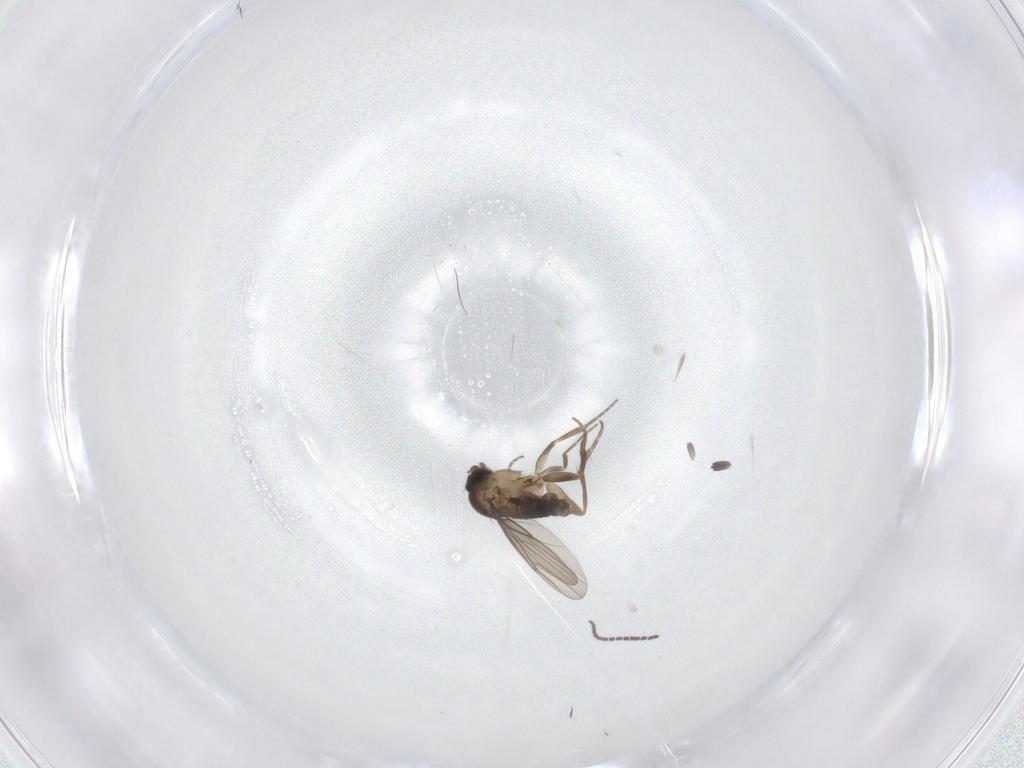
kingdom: Animalia
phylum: Arthropoda
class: Insecta
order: Diptera
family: Sciaridae
